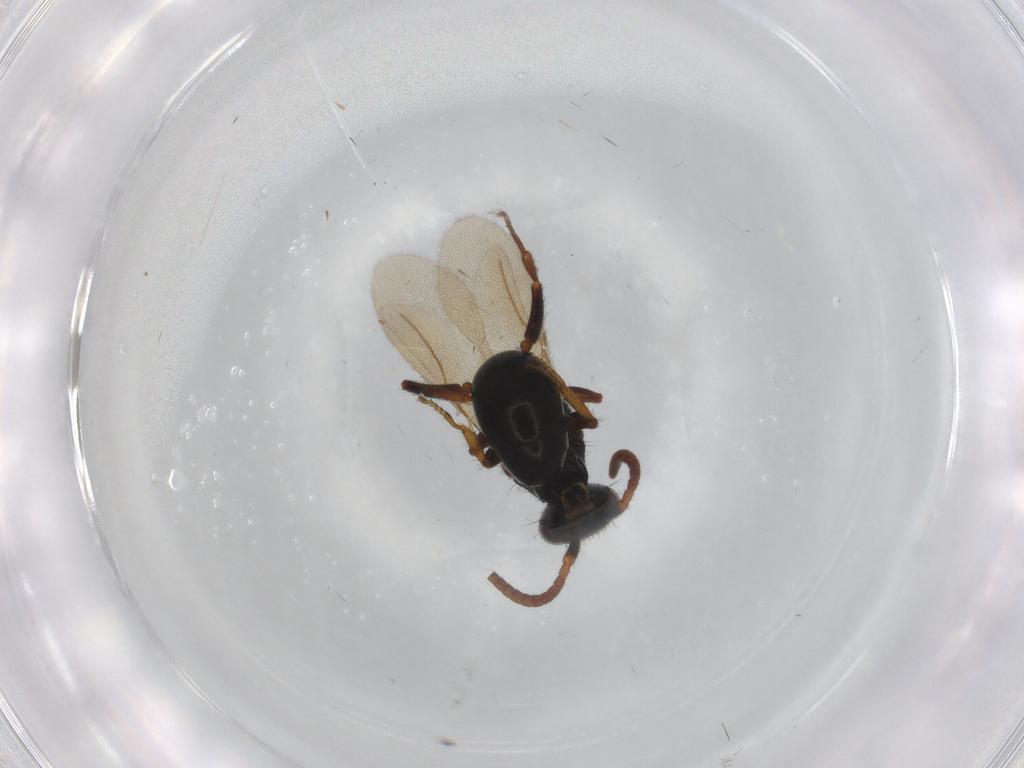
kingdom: Animalia
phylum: Arthropoda
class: Insecta
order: Hymenoptera
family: Bethylidae
